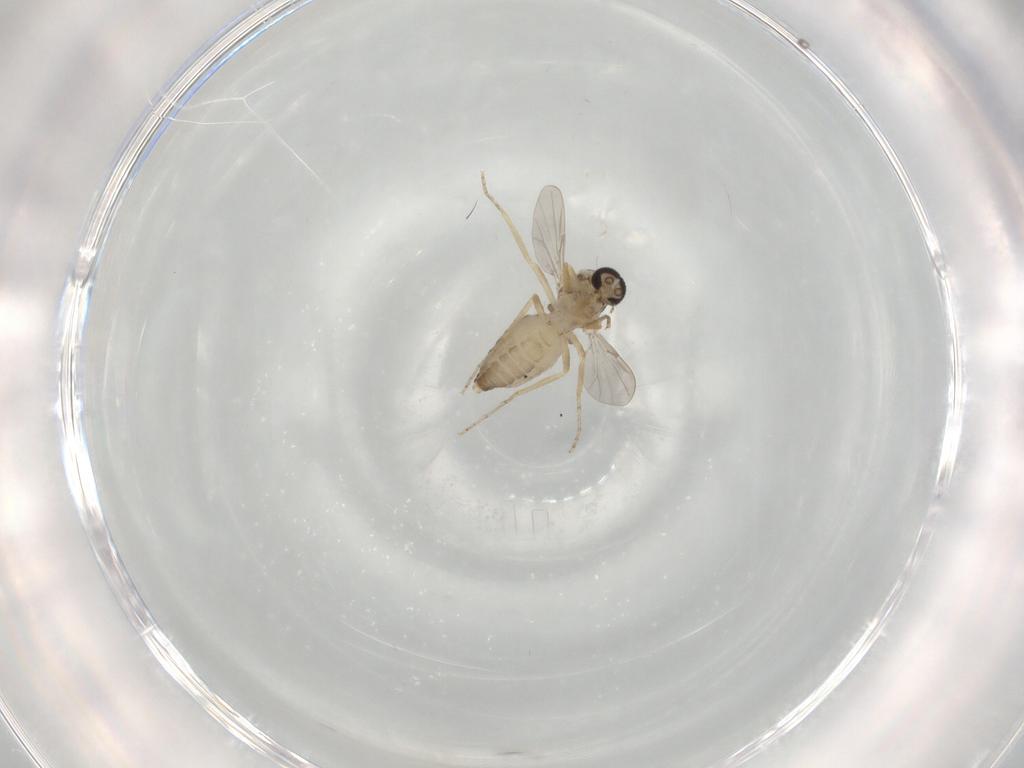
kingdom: Animalia
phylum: Arthropoda
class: Insecta
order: Diptera
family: Ceratopogonidae
